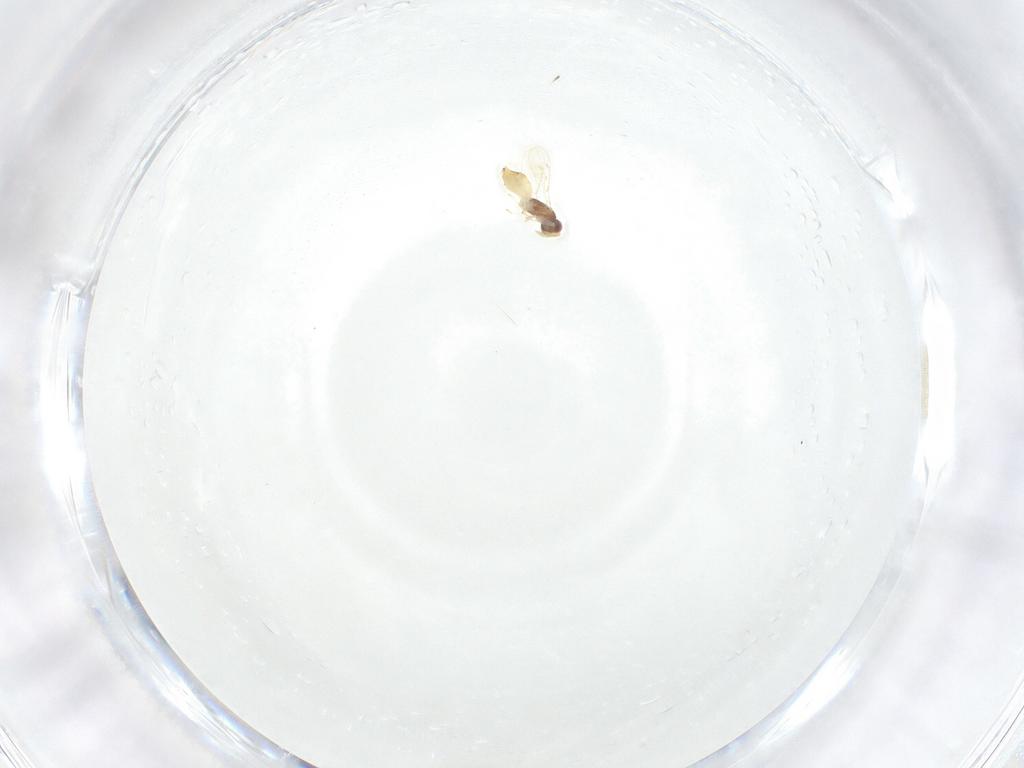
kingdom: Animalia
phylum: Arthropoda
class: Insecta
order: Hymenoptera
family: Eulophidae
